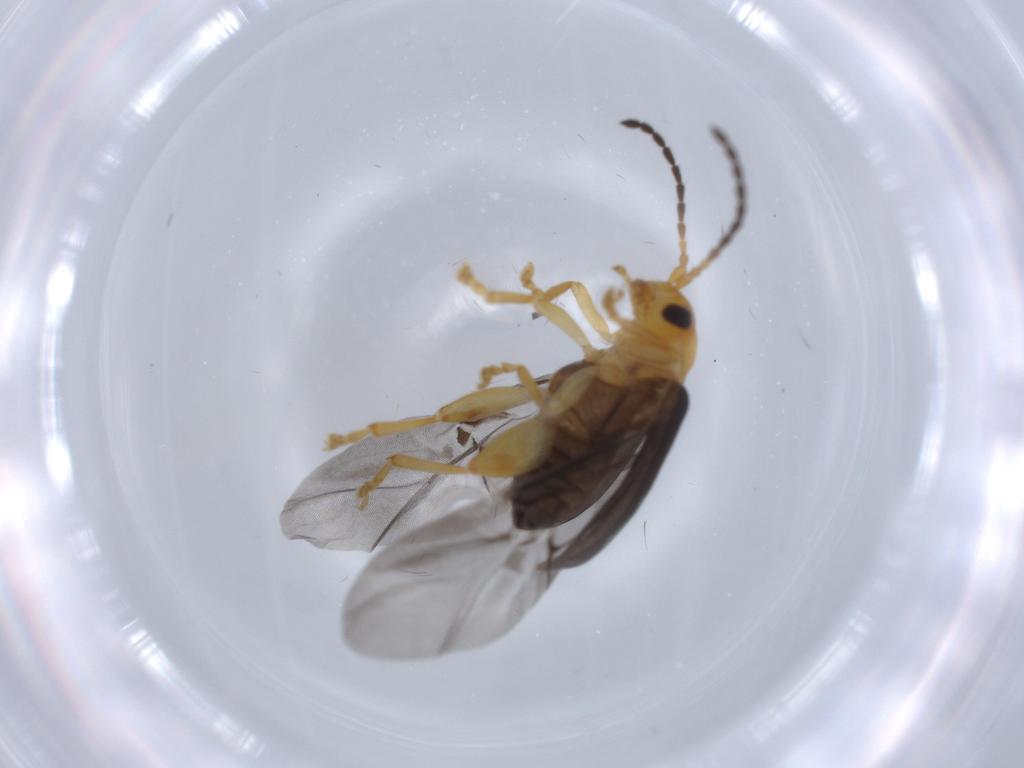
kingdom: Animalia
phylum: Arthropoda
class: Insecta
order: Coleoptera
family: Chrysomelidae
